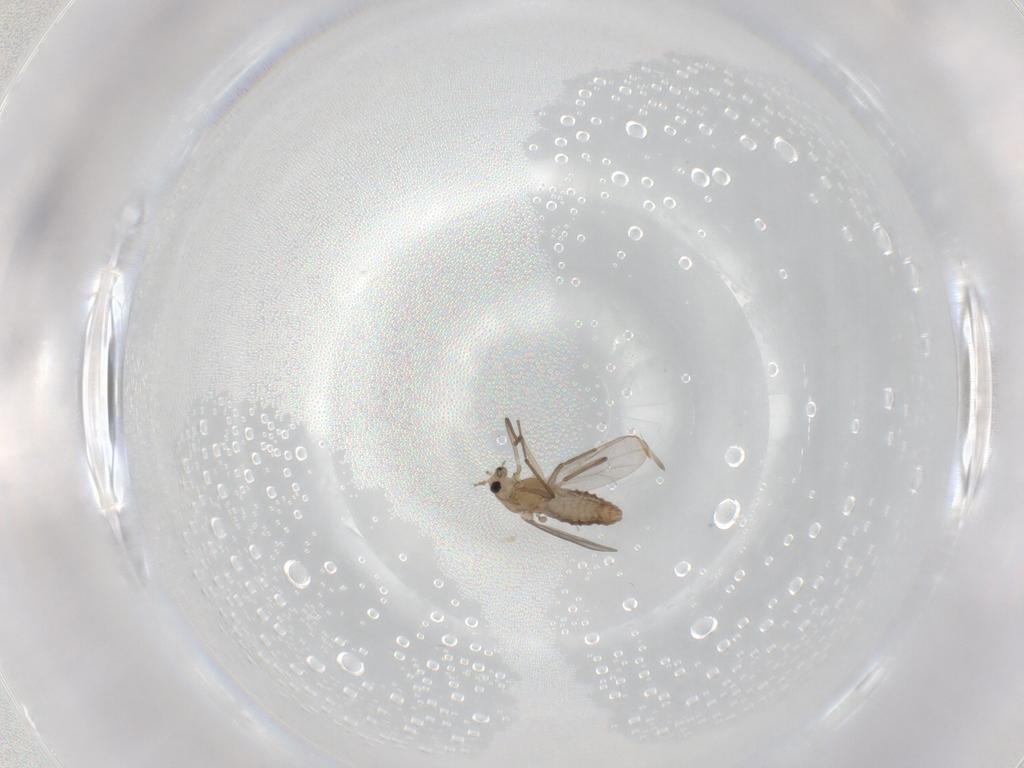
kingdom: Animalia
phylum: Arthropoda
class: Insecta
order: Diptera
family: Chironomidae
